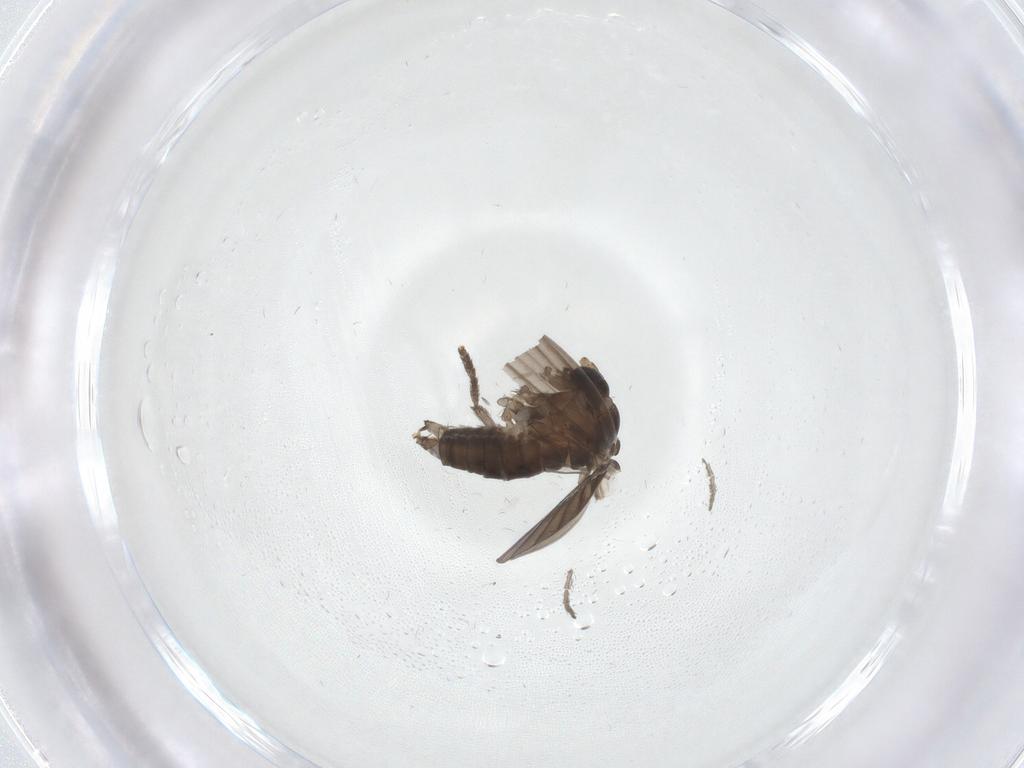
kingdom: Animalia
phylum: Arthropoda
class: Insecta
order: Diptera
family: Psychodidae
